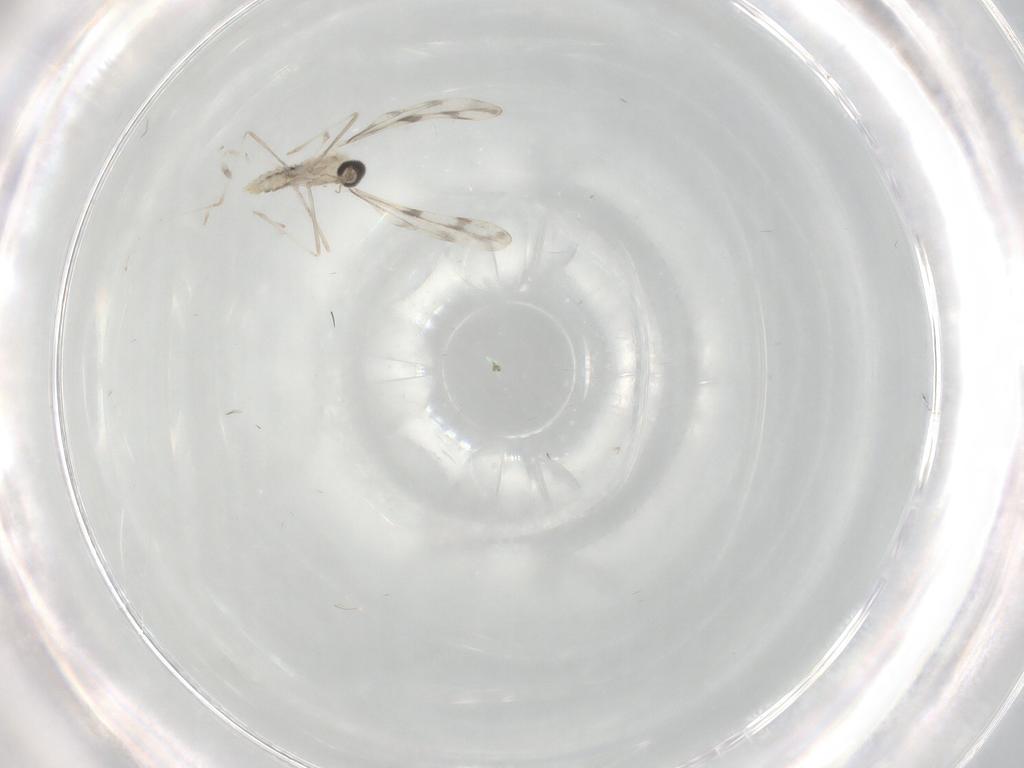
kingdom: Animalia
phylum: Arthropoda
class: Insecta
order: Diptera
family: Cecidomyiidae
